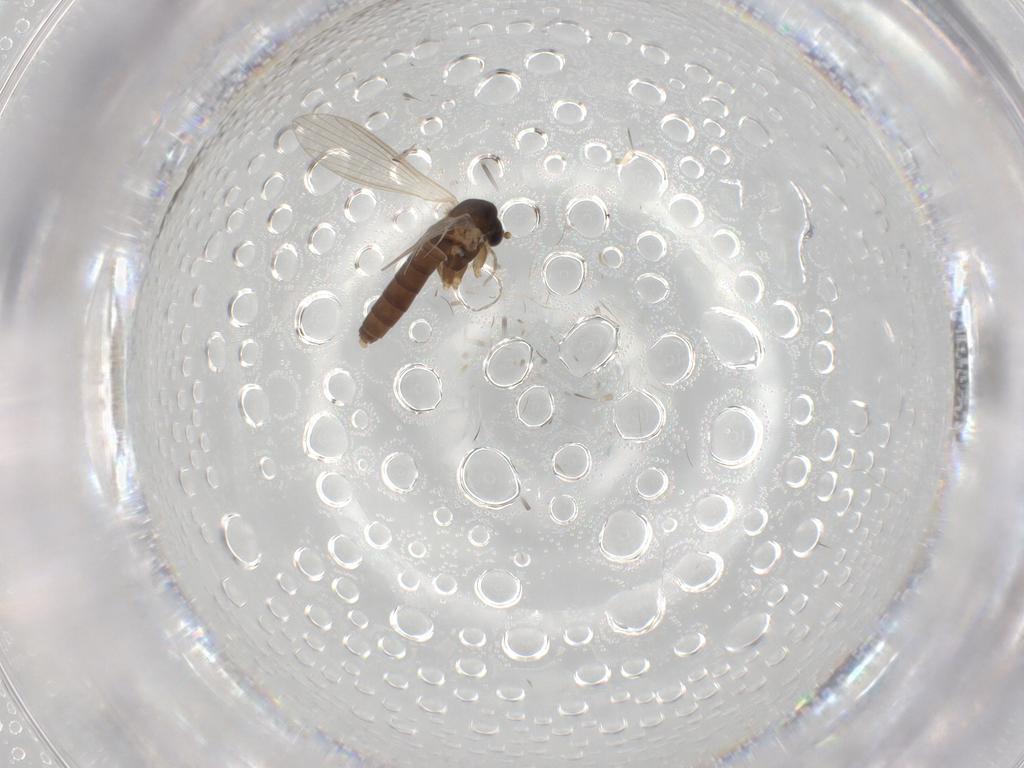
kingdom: Animalia
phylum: Arthropoda
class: Insecta
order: Diptera
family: Psychodidae
